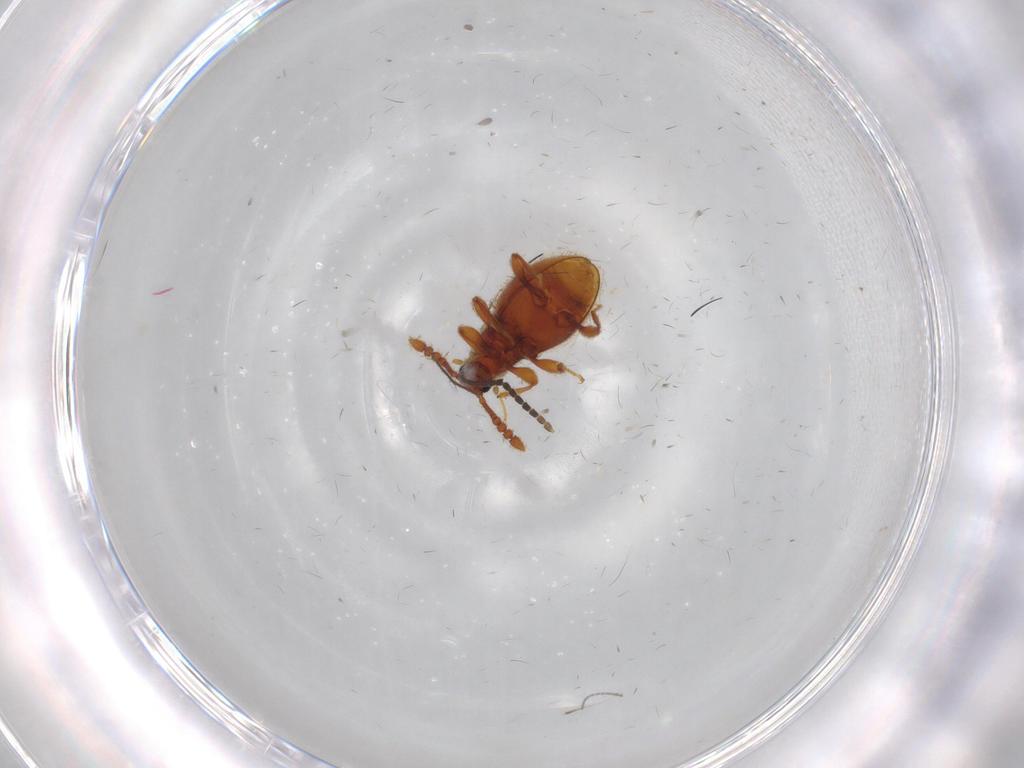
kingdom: Animalia
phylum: Arthropoda
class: Insecta
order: Coleoptera
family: Staphylinidae
